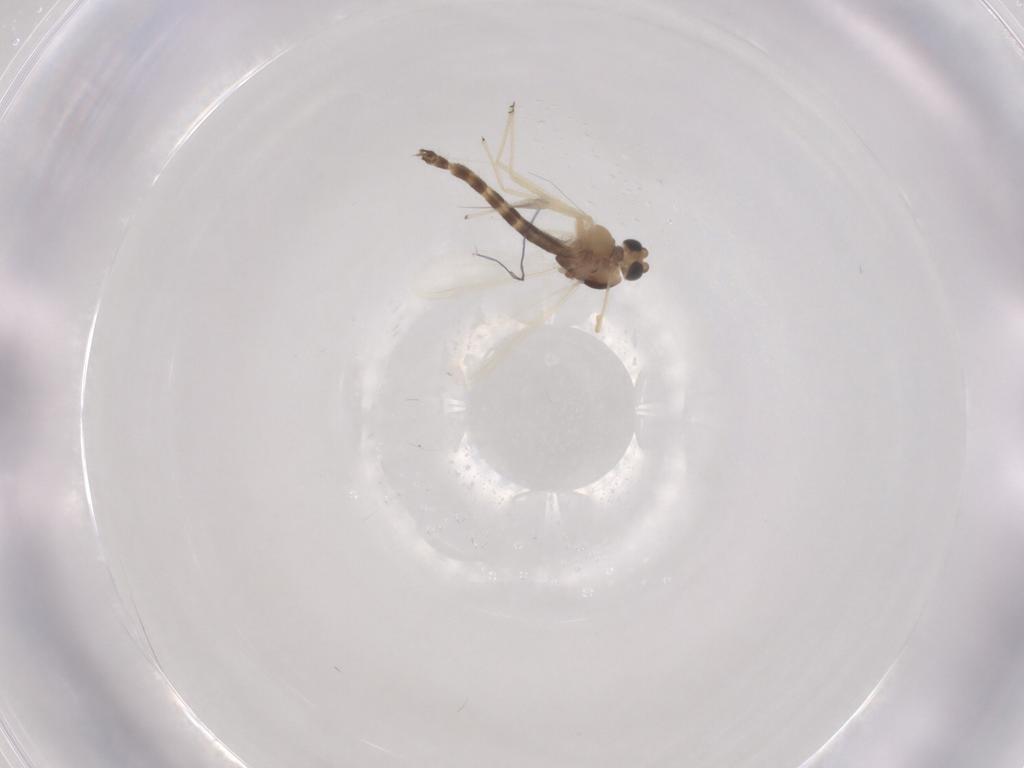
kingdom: Animalia
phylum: Arthropoda
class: Insecta
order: Diptera
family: Chironomidae
